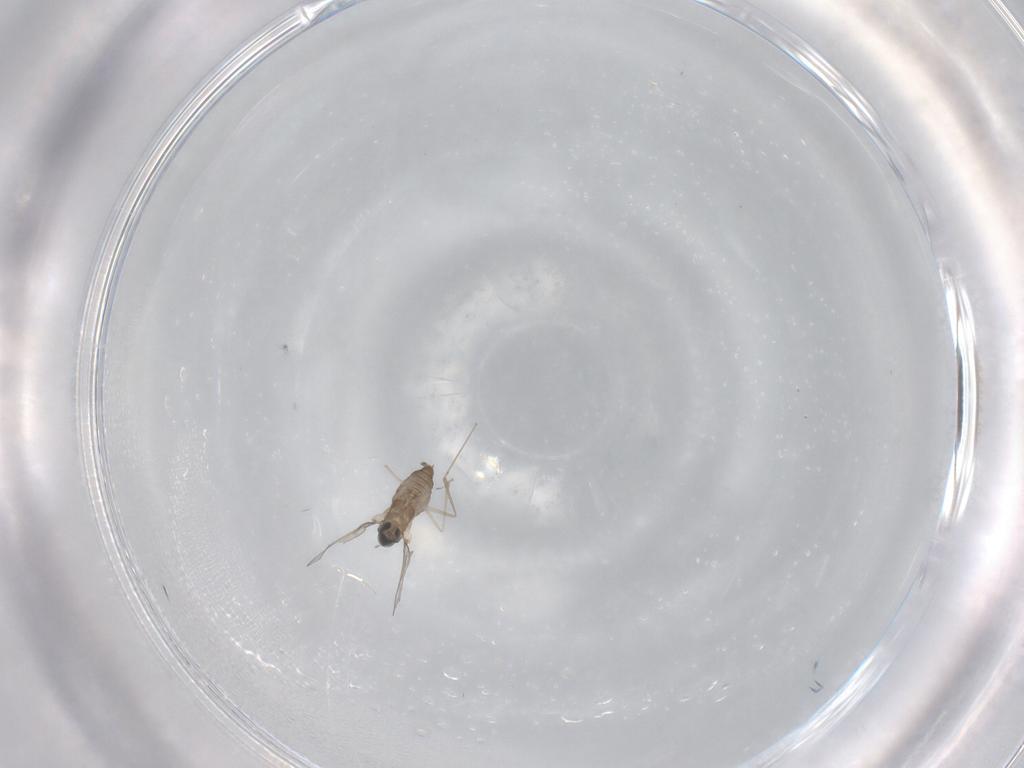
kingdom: Animalia
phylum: Arthropoda
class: Insecta
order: Diptera
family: Cecidomyiidae
